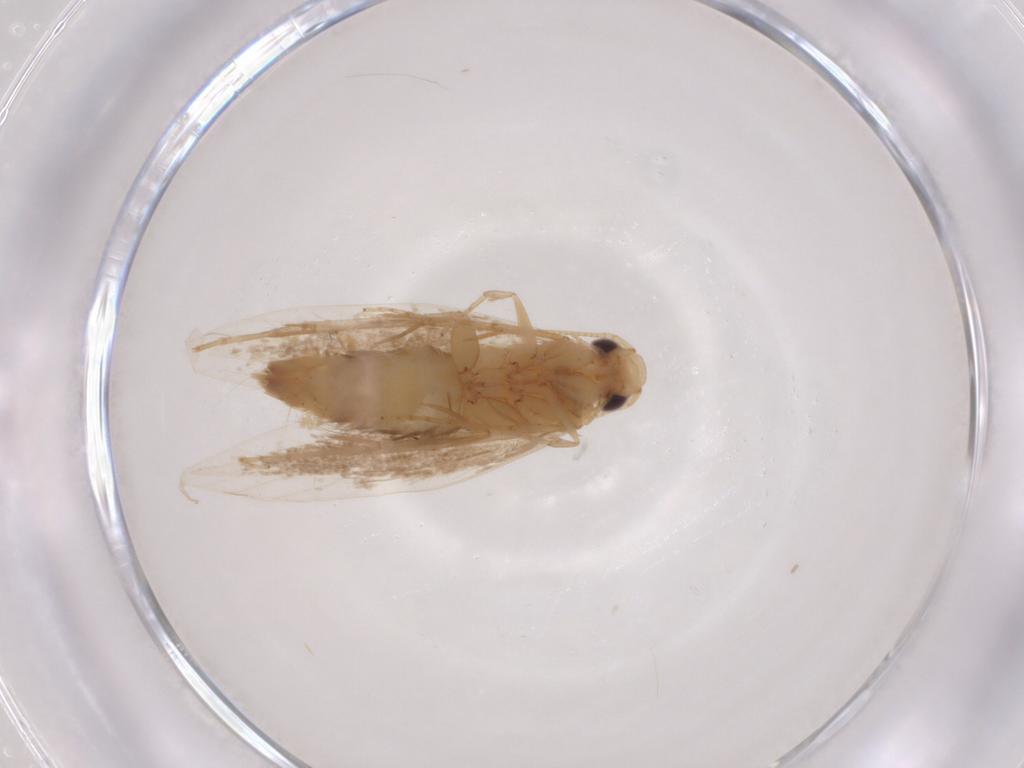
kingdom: Animalia
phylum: Arthropoda
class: Insecta
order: Lepidoptera
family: Tineidae
